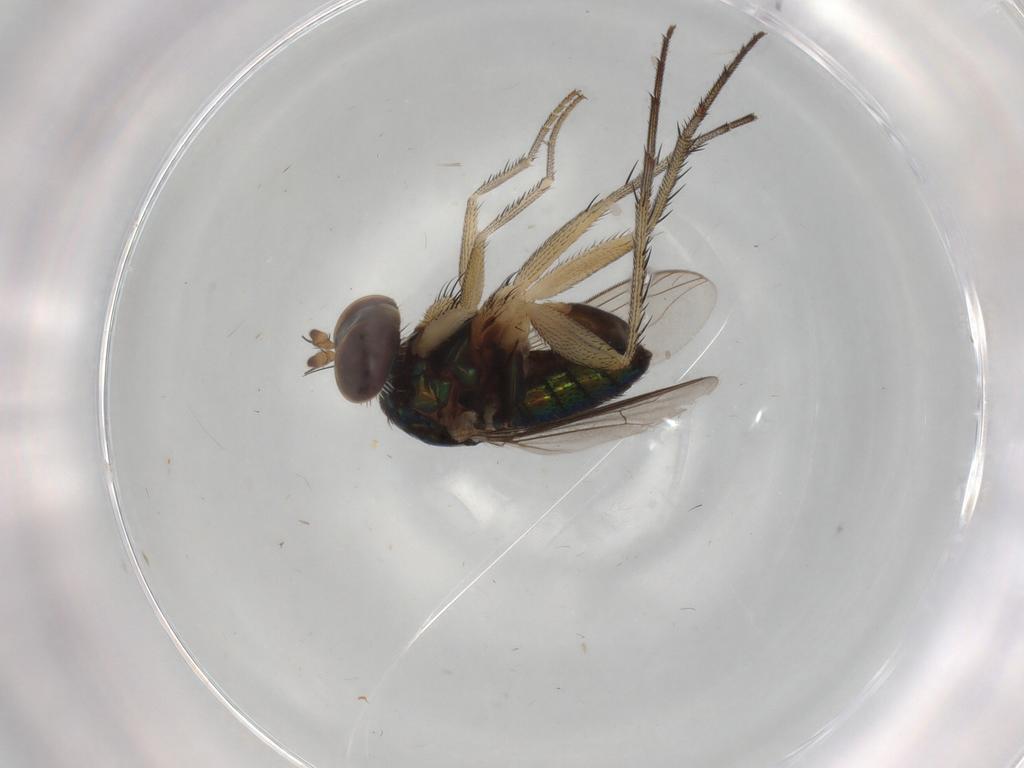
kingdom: Animalia
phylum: Arthropoda
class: Insecta
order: Diptera
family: Dolichopodidae
